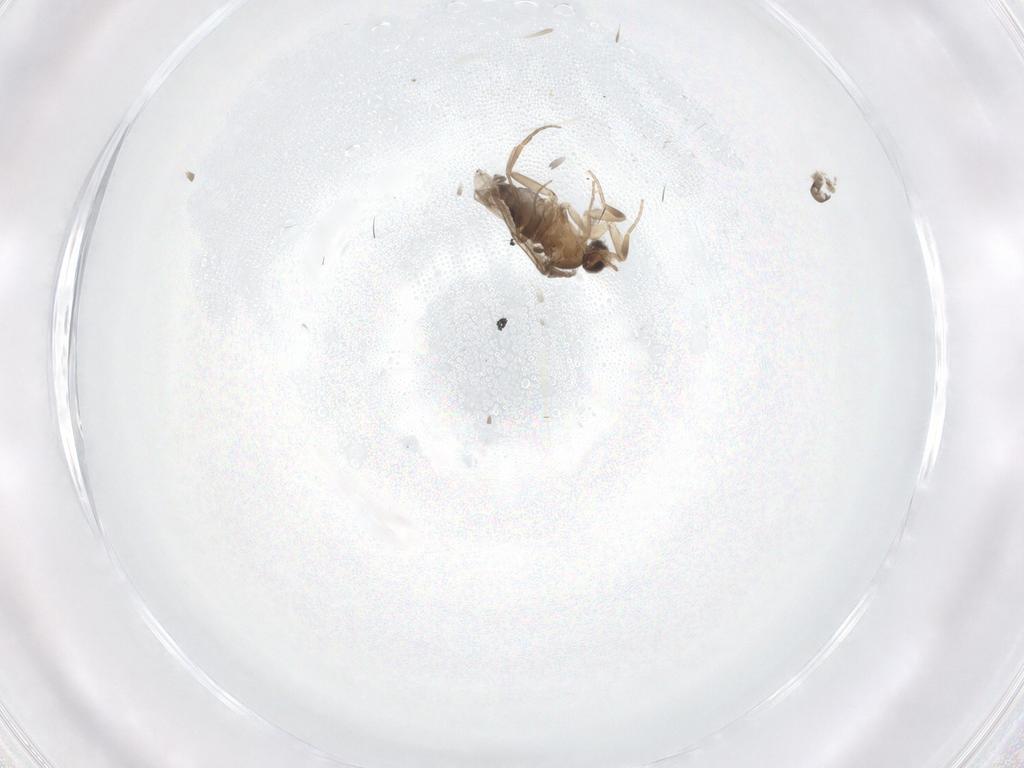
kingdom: Animalia
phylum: Arthropoda
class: Insecta
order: Diptera
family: Phoridae
